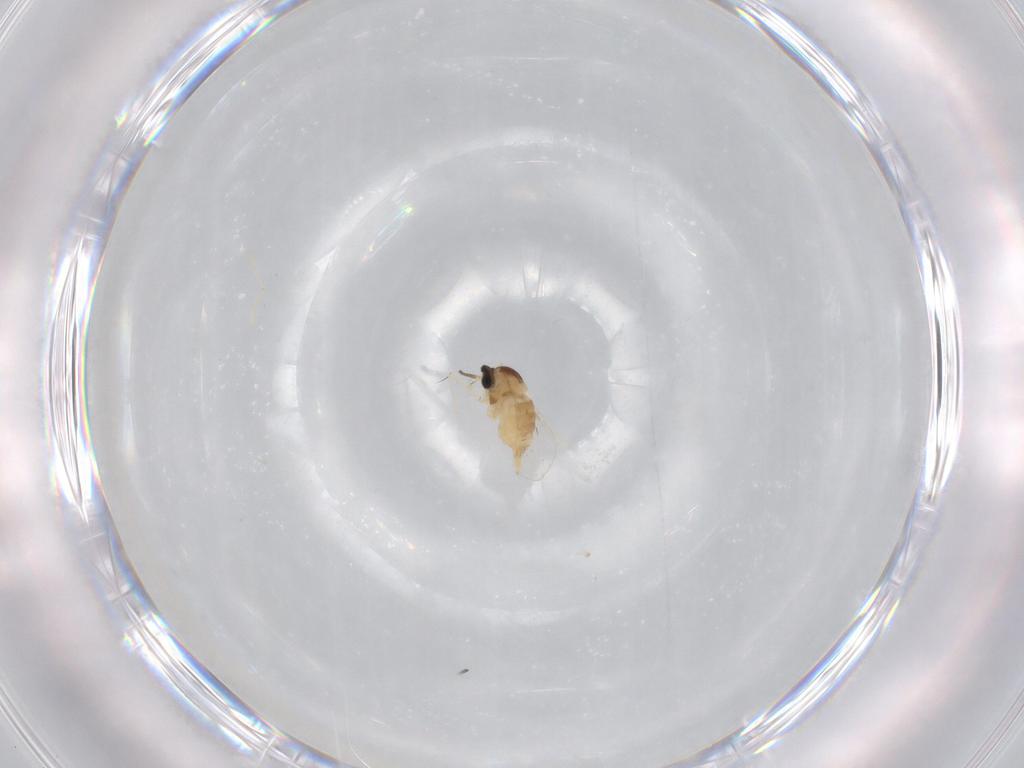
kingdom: Animalia
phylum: Arthropoda
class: Insecta
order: Diptera
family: Cecidomyiidae
